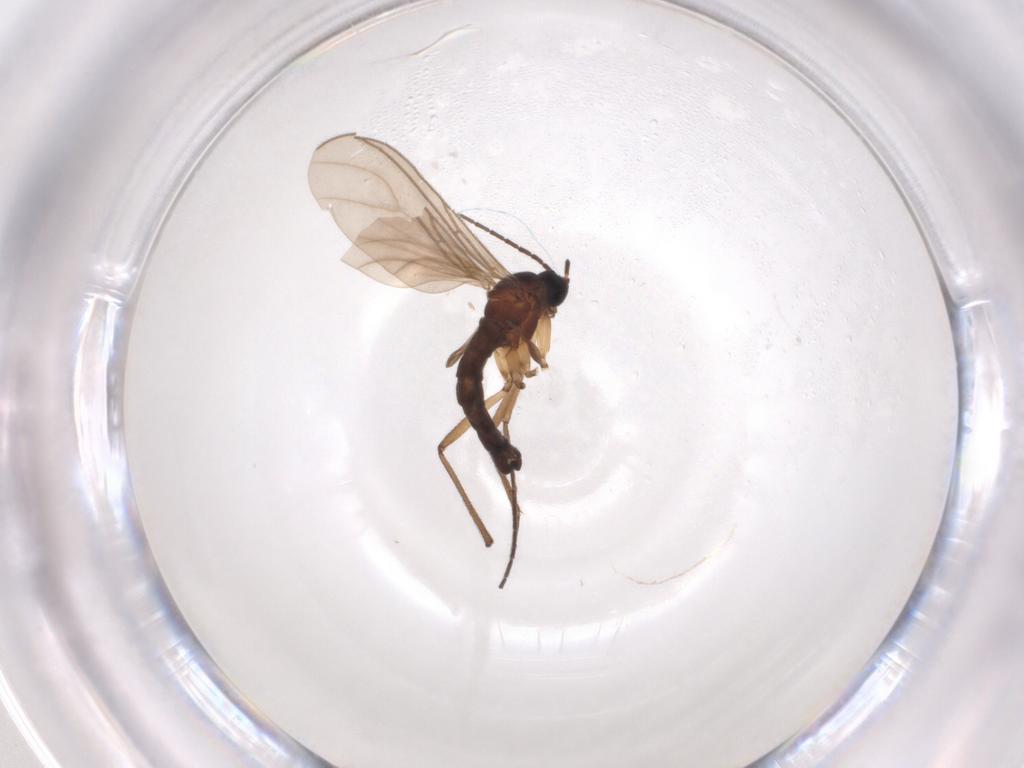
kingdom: Animalia
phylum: Arthropoda
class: Insecta
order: Diptera
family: Sciaridae
